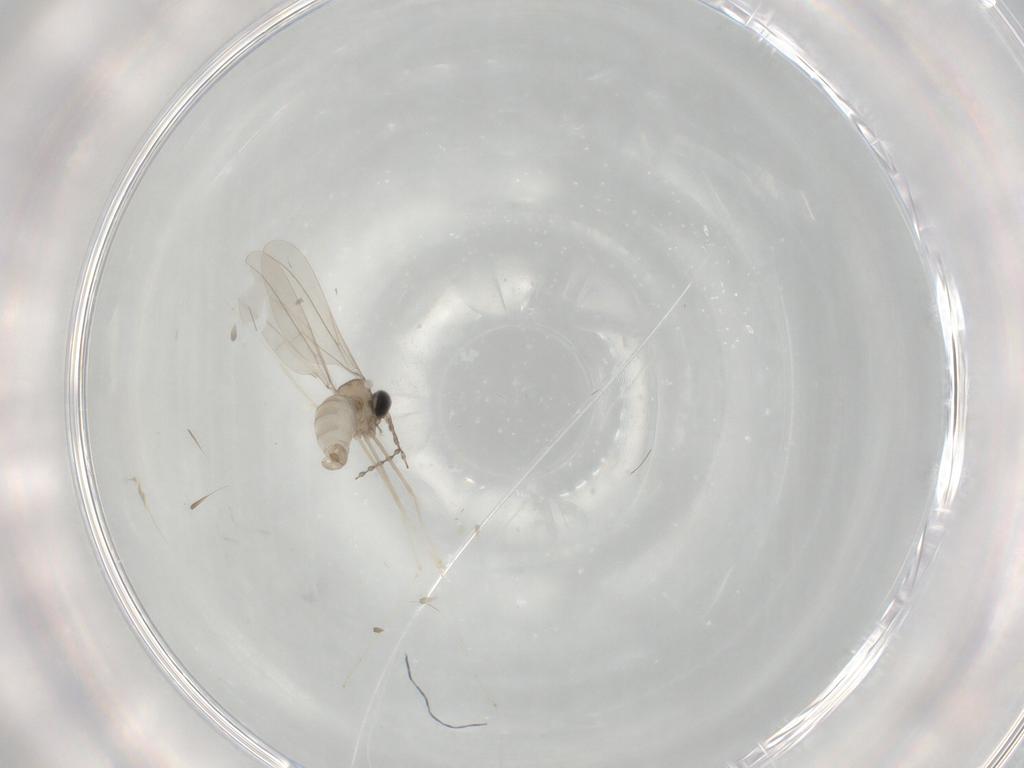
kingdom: Animalia
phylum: Arthropoda
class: Insecta
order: Diptera
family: Cecidomyiidae
